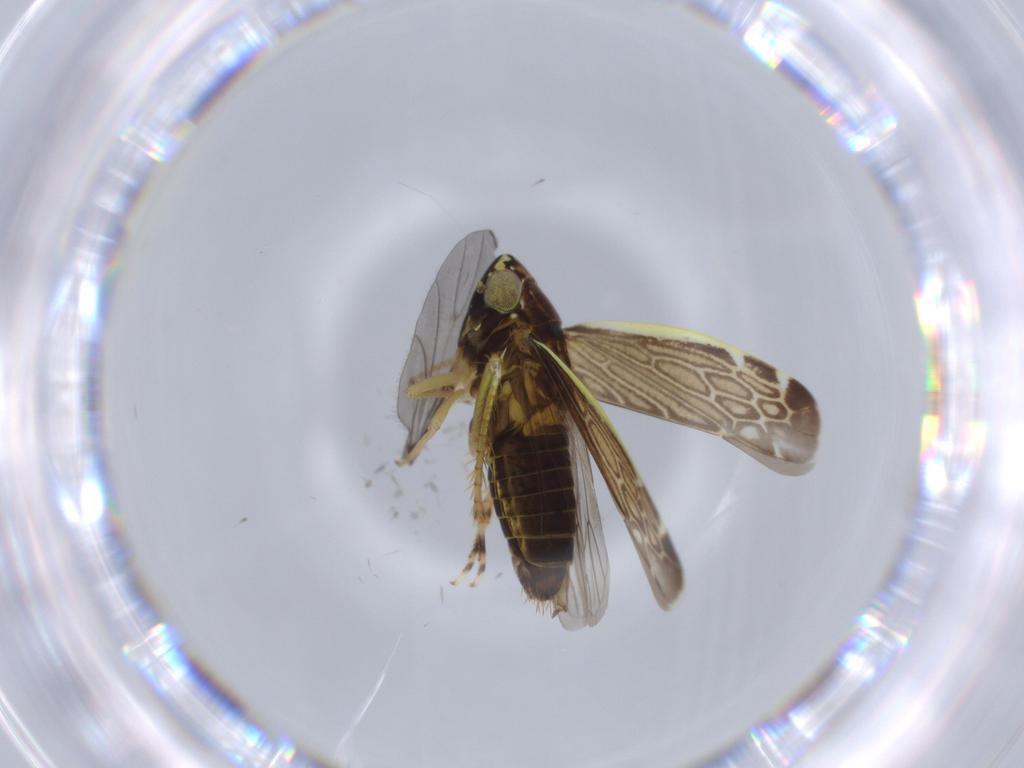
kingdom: Animalia
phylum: Arthropoda
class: Insecta
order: Hemiptera
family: Cicadellidae
